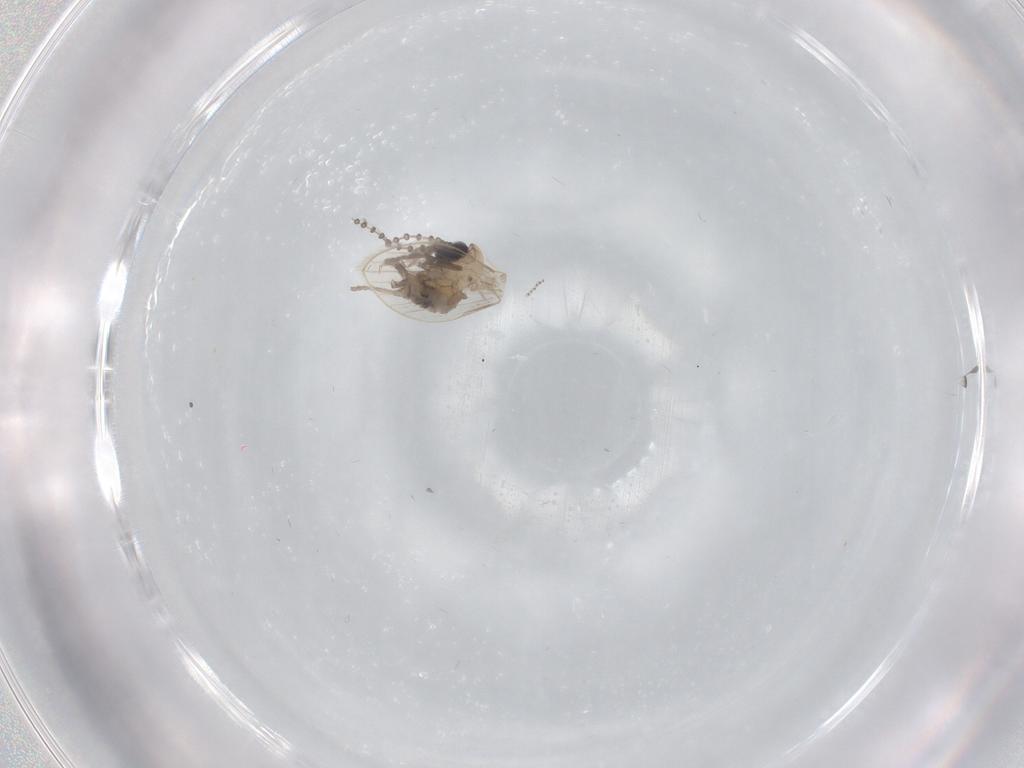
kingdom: Animalia
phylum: Arthropoda
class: Insecta
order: Diptera
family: Psychodidae
